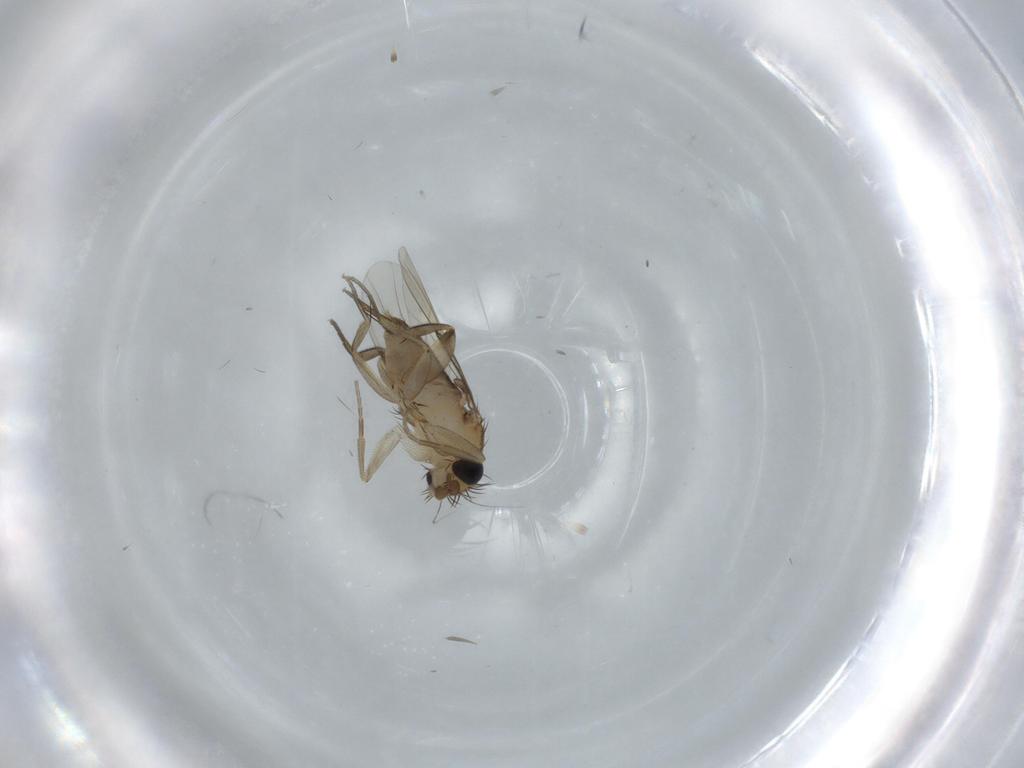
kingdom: Animalia
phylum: Arthropoda
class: Insecta
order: Diptera
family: Phoridae
